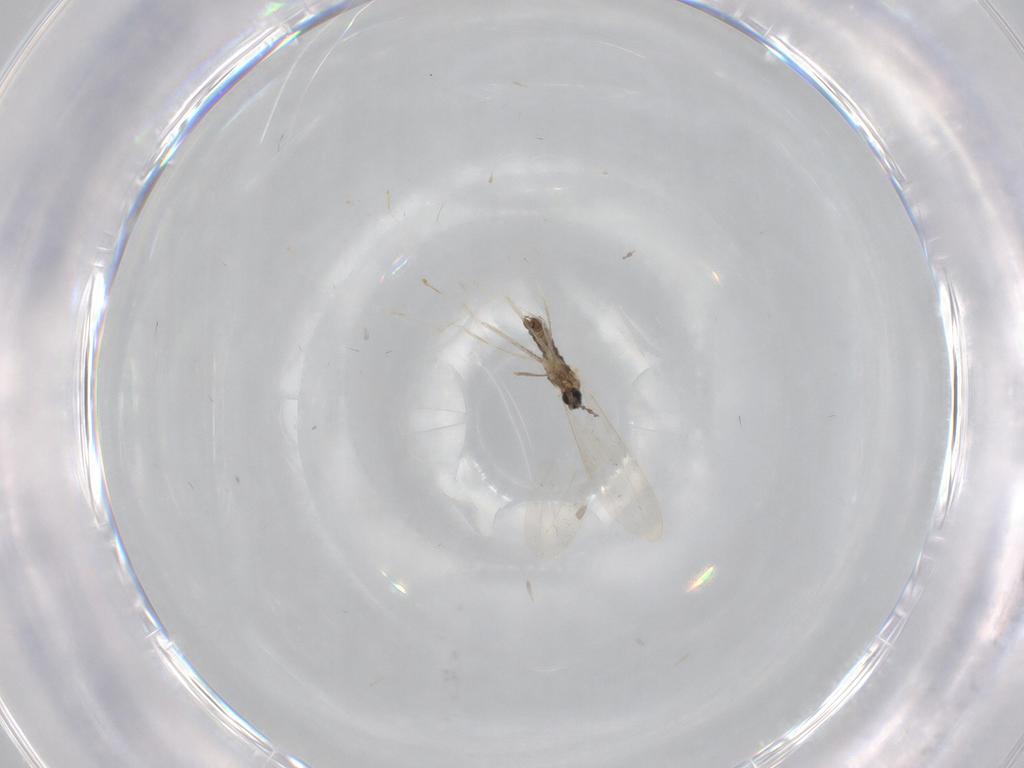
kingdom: Animalia
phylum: Arthropoda
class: Insecta
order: Diptera
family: Cecidomyiidae
